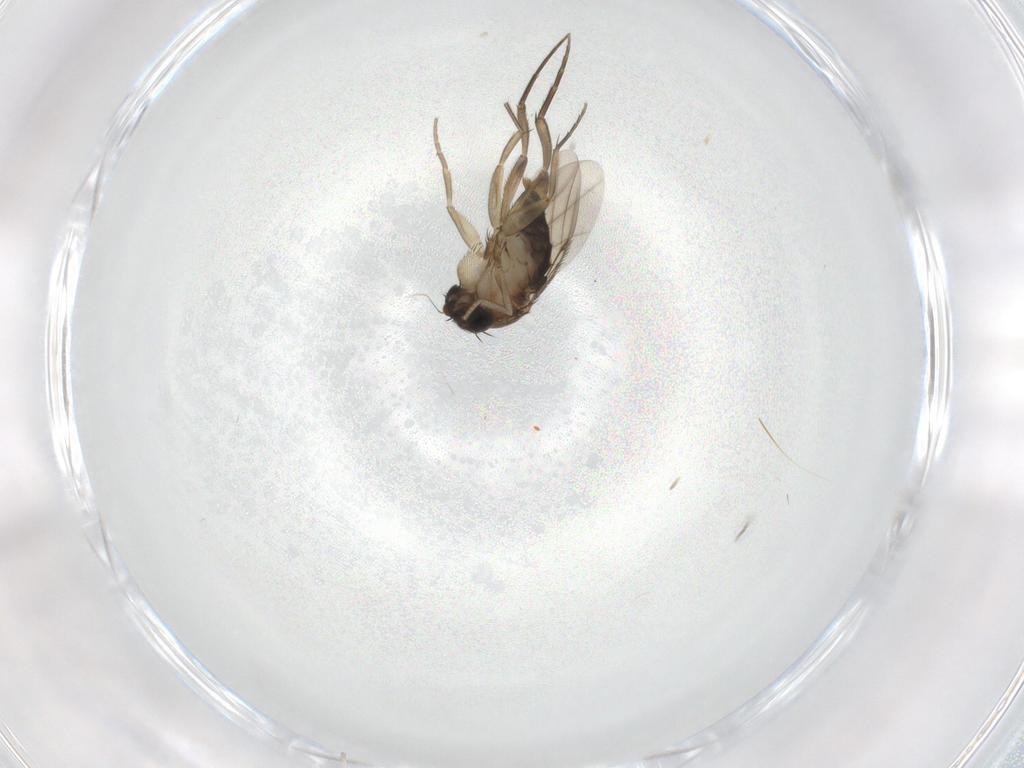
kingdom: Animalia
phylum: Arthropoda
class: Insecta
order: Diptera
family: Phoridae
